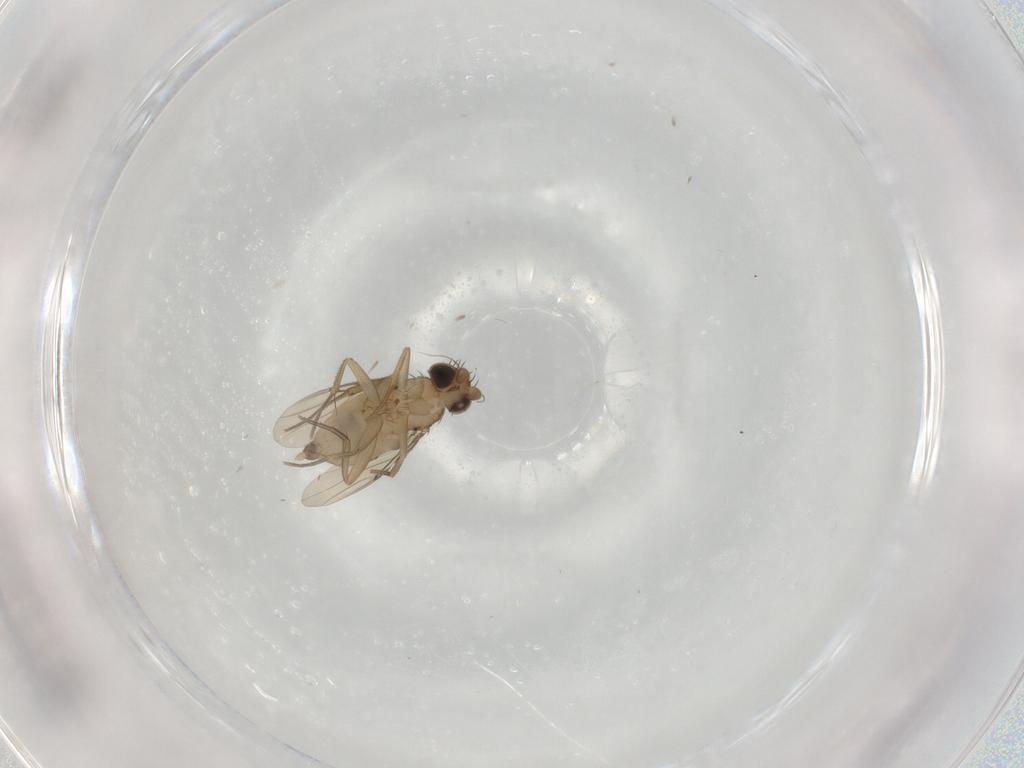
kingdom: Animalia
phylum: Arthropoda
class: Insecta
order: Diptera
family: Phoridae
